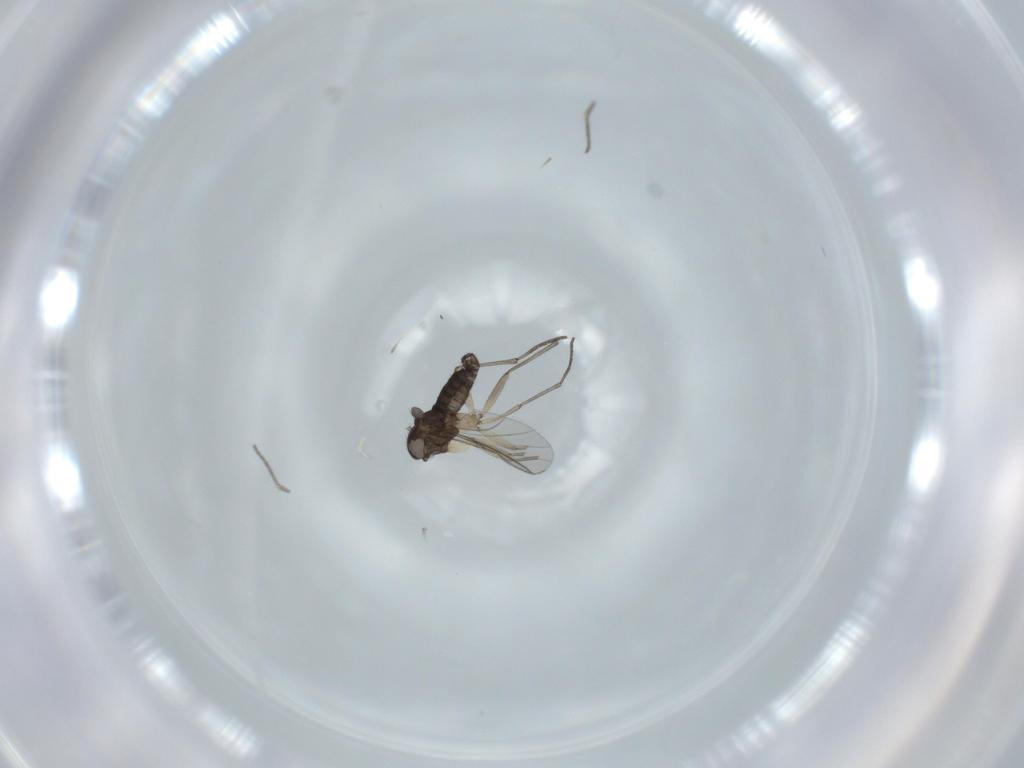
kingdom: Animalia
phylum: Arthropoda
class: Insecta
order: Diptera
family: Sciaridae
